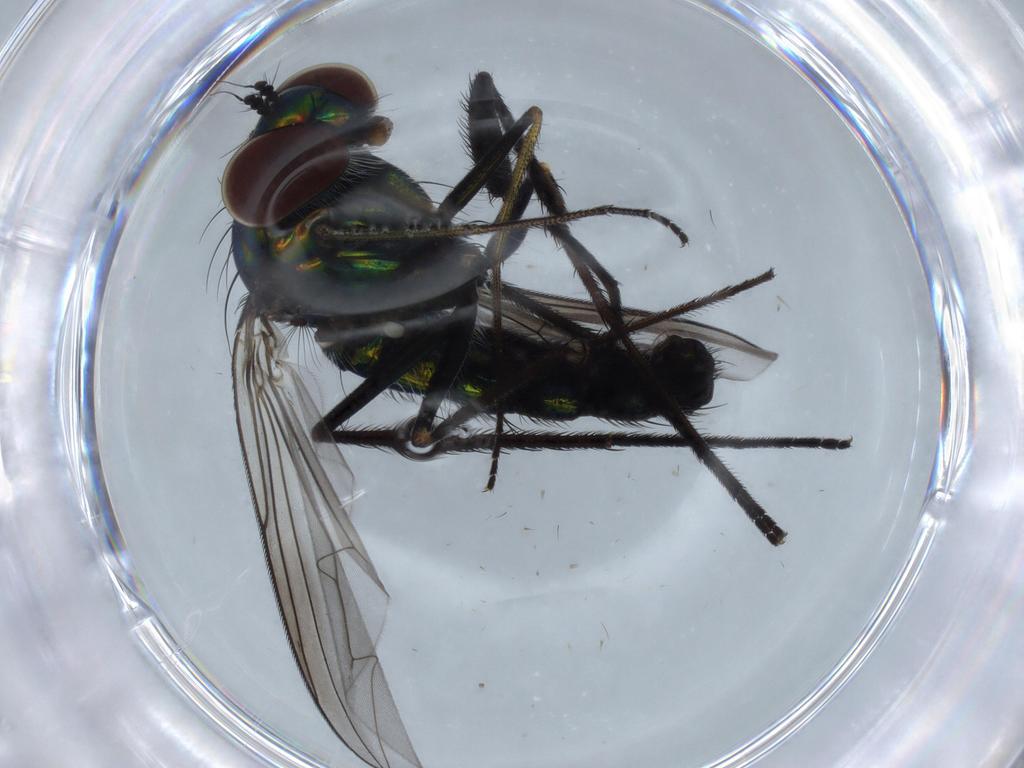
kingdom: Animalia
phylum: Arthropoda
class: Insecta
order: Diptera
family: Dolichopodidae
